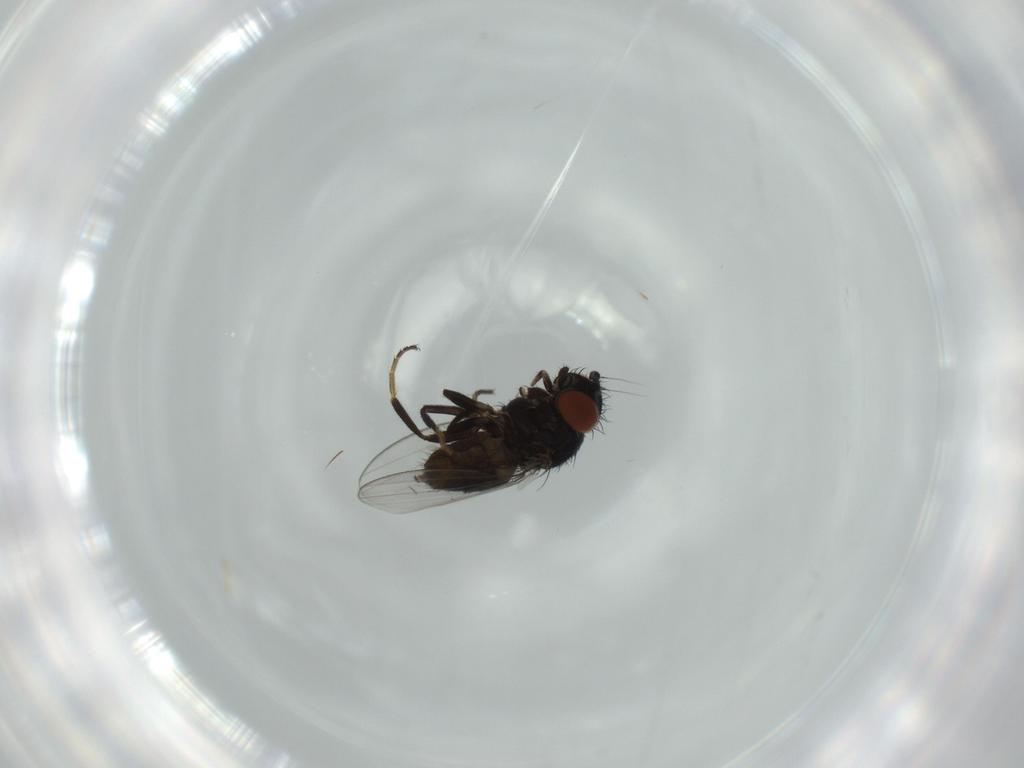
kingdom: Animalia
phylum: Arthropoda
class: Insecta
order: Diptera
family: Milichiidae
